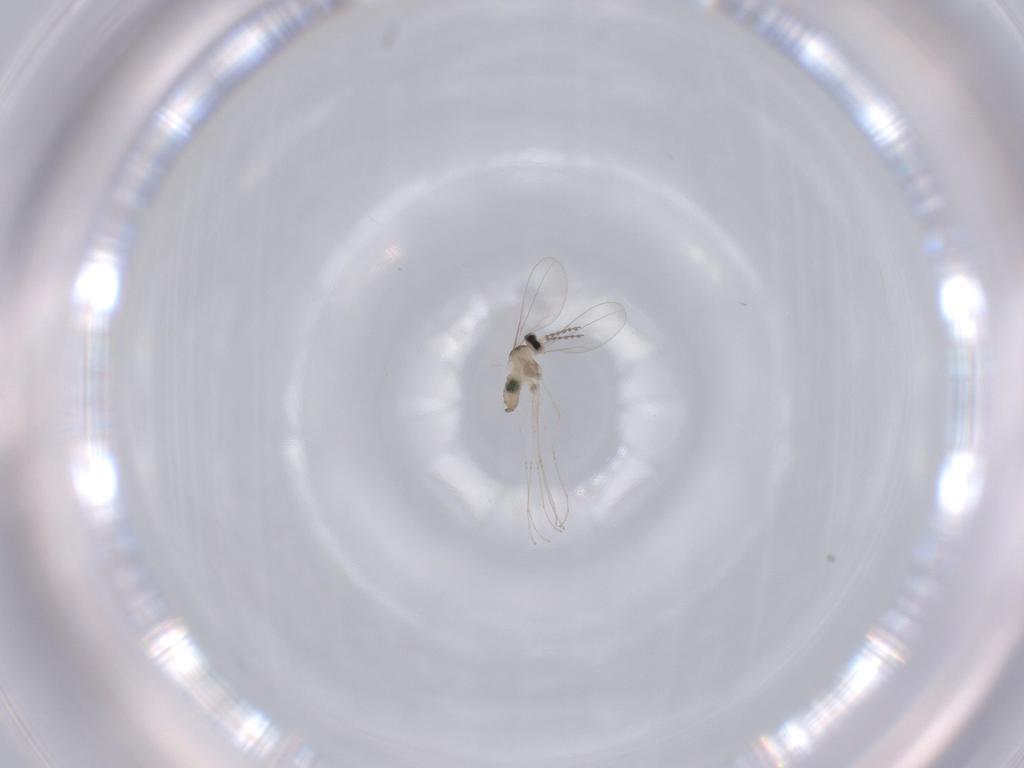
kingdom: Animalia
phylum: Arthropoda
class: Insecta
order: Diptera
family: Cecidomyiidae
